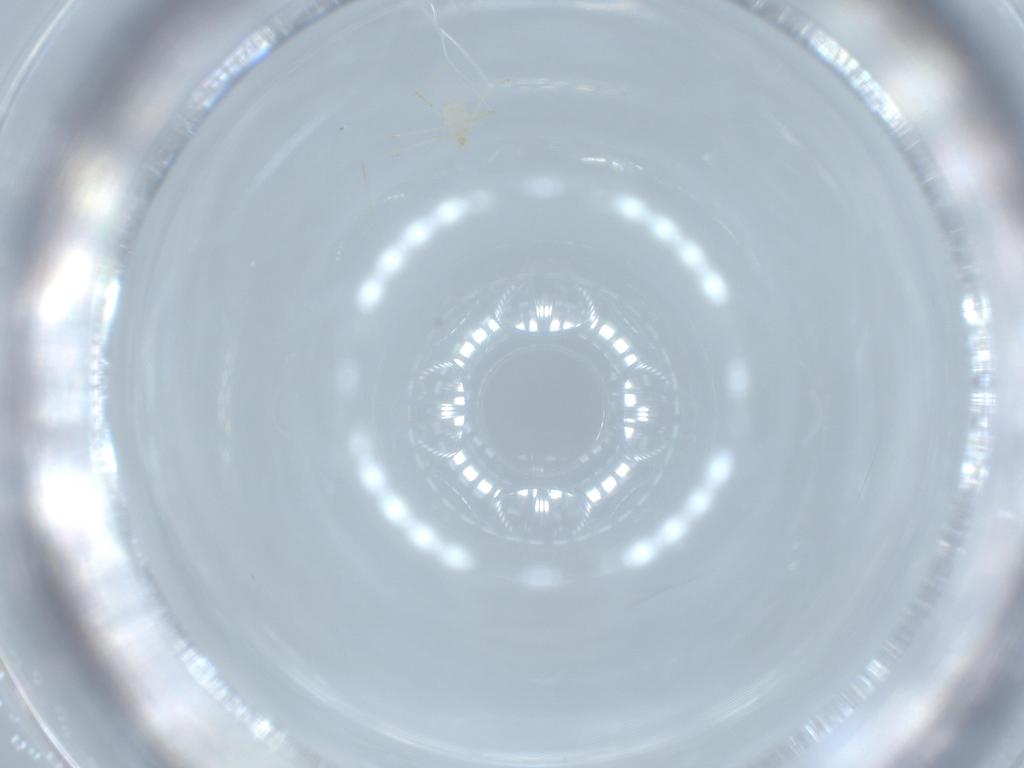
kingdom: Animalia
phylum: Arthropoda
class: Arachnida
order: Trombidiformes
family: Erythraeidae
